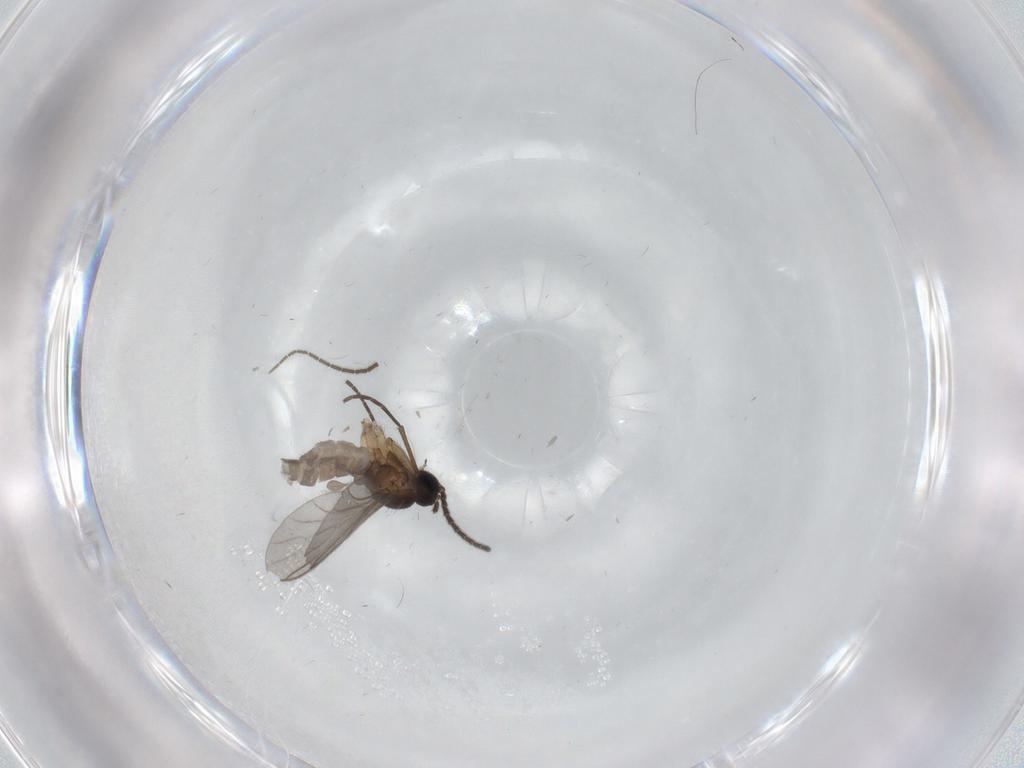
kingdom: Animalia
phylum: Arthropoda
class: Insecta
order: Diptera
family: Sciaridae
